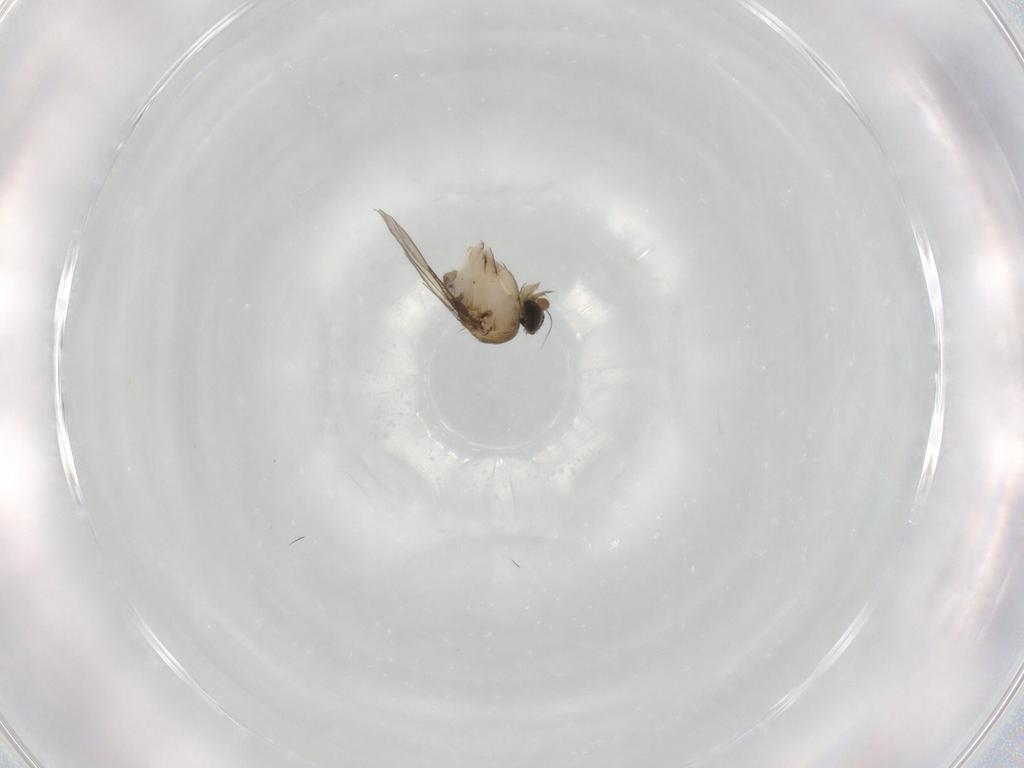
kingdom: Animalia
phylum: Arthropoda
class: Insecta
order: Diptera
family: Phoridae
